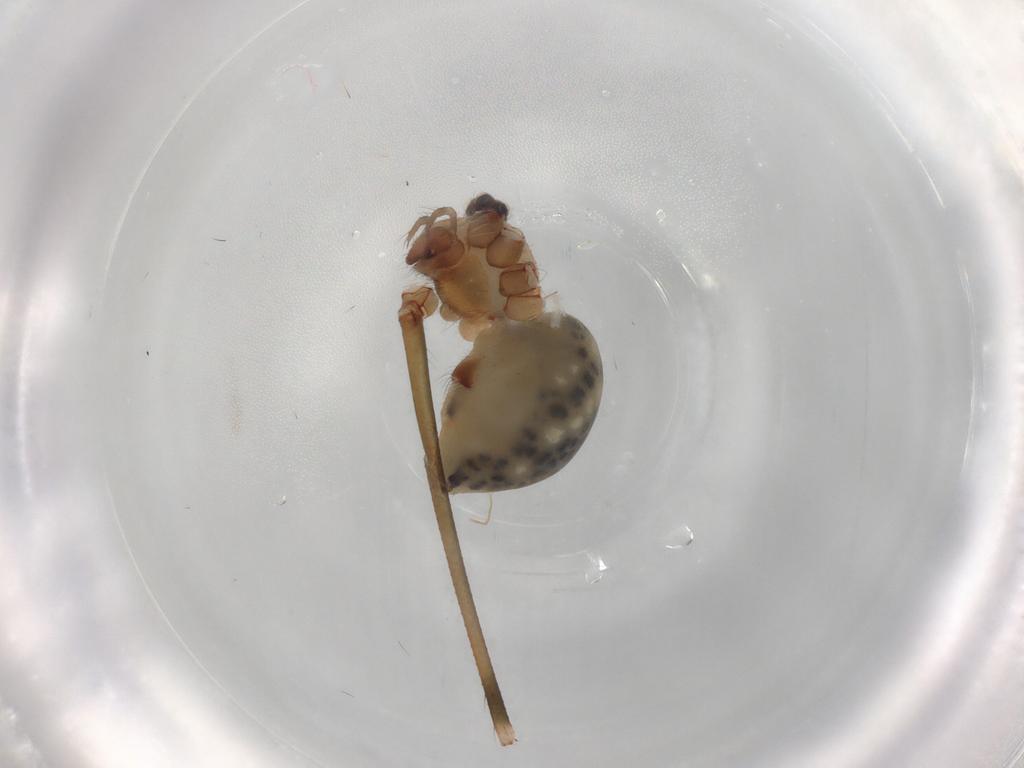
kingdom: Animalia
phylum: Arthropoda
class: Arachnida
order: Araneae
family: Pholcidae
